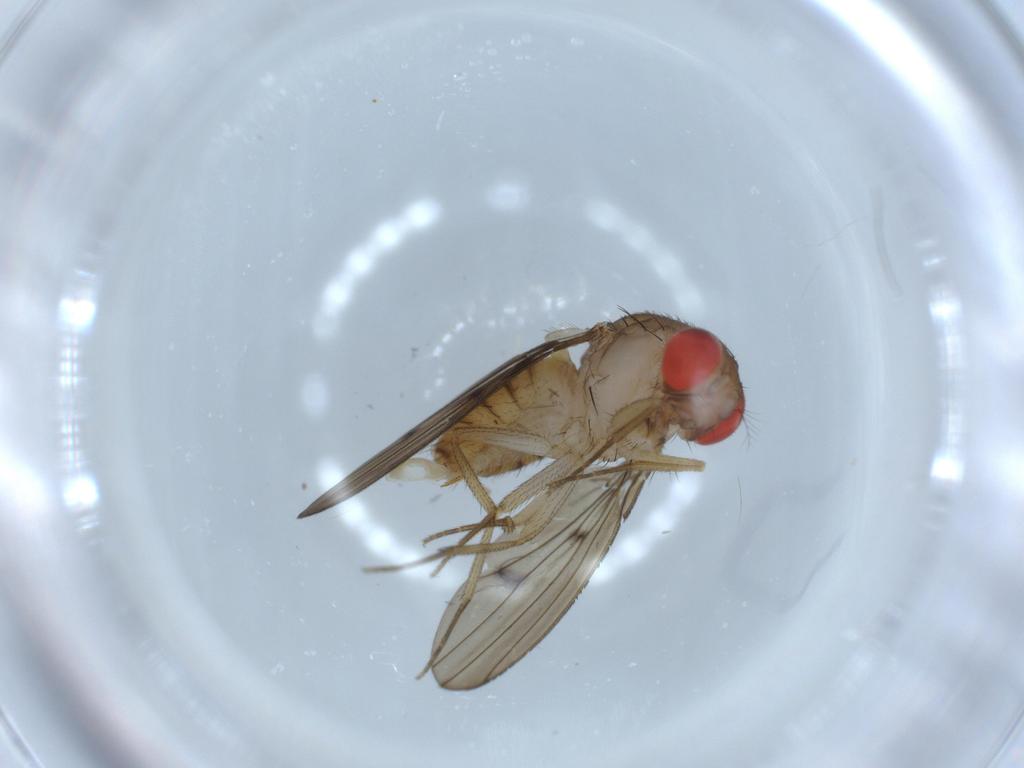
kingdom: Animalia
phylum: Arthropoda
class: Insecta
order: Diptera
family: Drosophilidae
